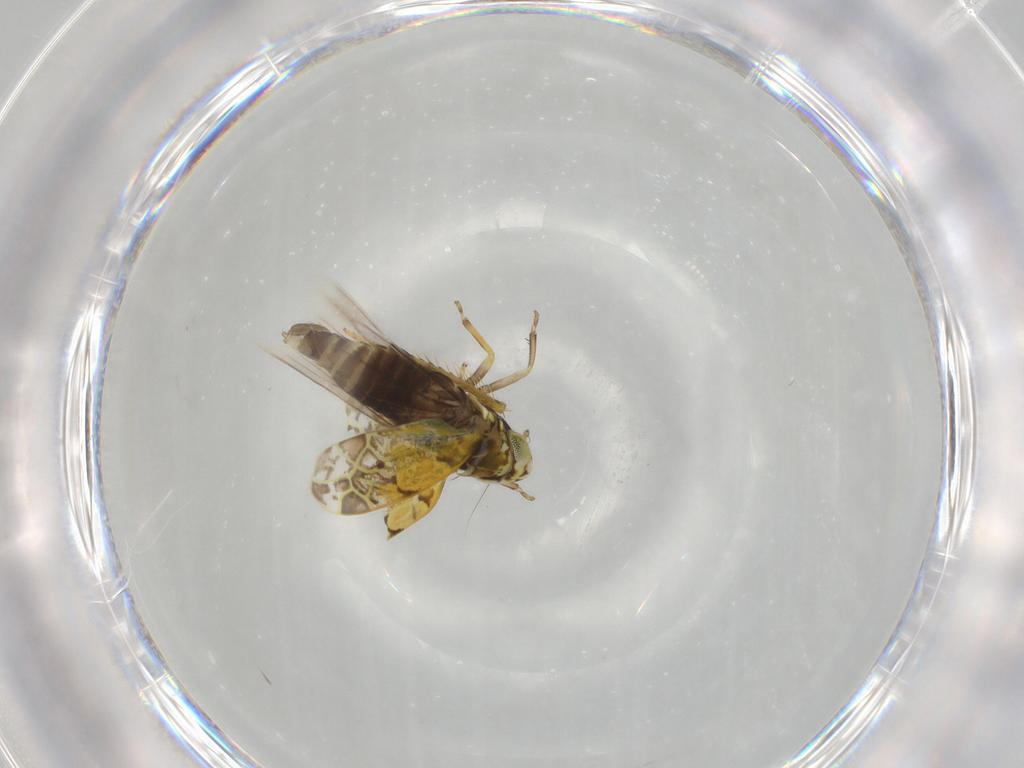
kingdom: Animalia
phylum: Arthropoda
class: Insecta
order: Hemiptera
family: Cicadellidae
